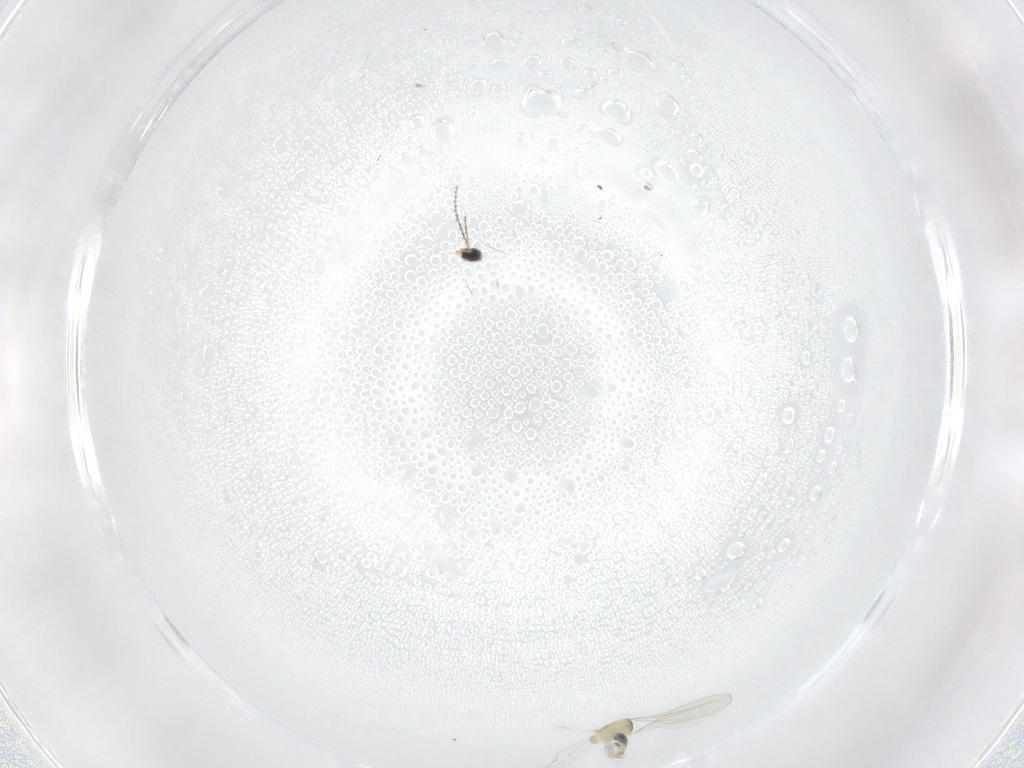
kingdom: Animalia
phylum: Arthropoda
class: Insecta
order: Diptera
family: Cecidomyiidae
